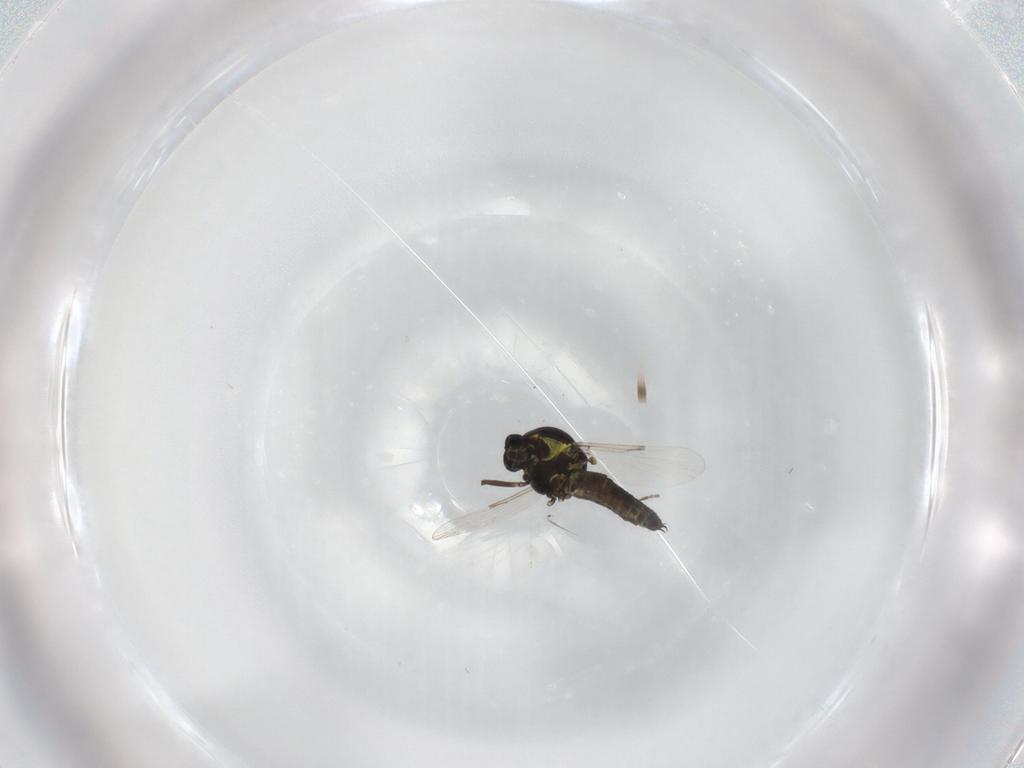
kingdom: Animalia
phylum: Arthropoda
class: Insecta
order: Diptera
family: Ceratopogonidae
